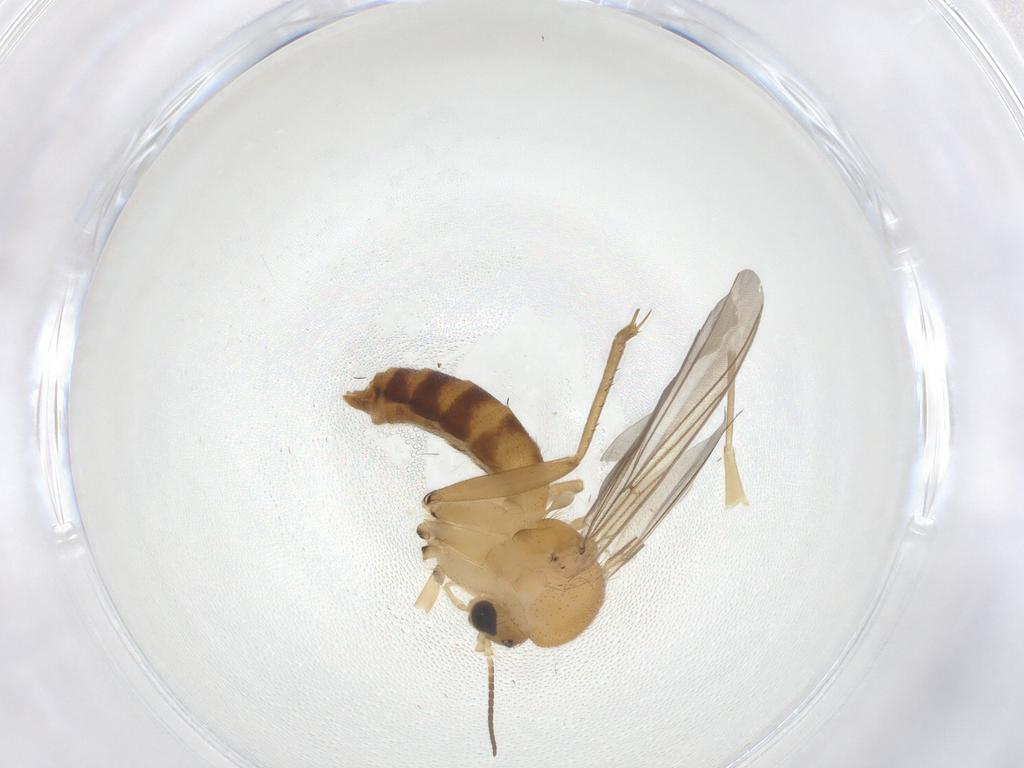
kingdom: Animalia
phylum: Arthropoda
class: Insecta
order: Diptera
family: Mycetophilidae
